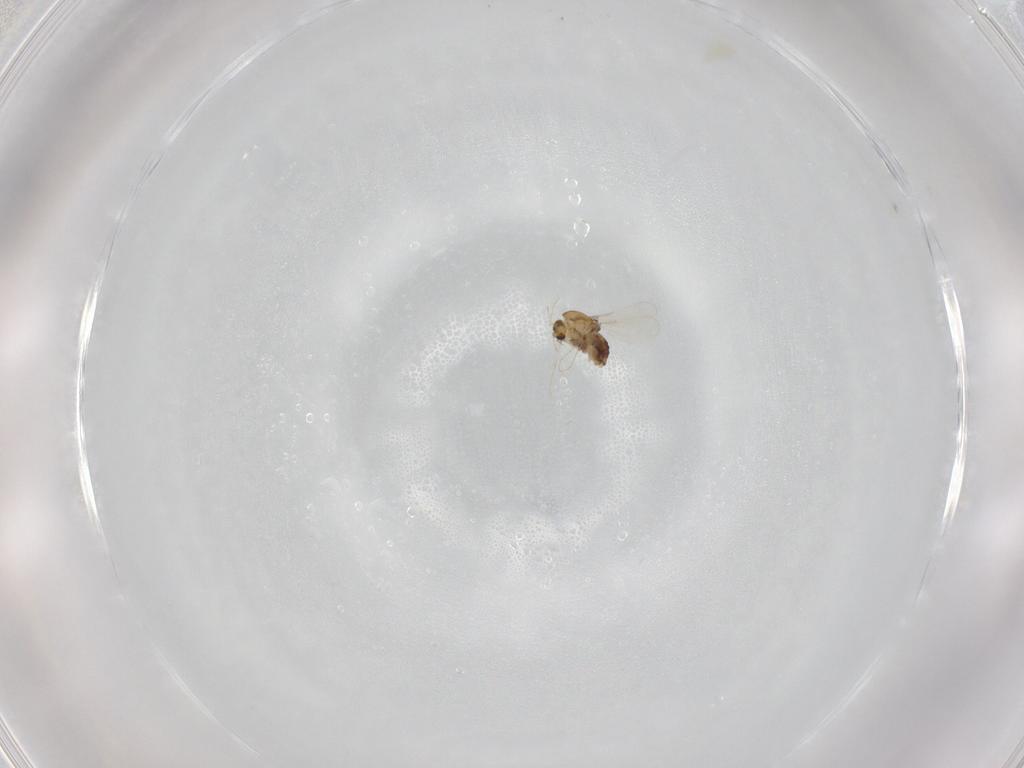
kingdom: Animalia
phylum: Arthropoda
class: Insecta
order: Diptera
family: Chironomidae
